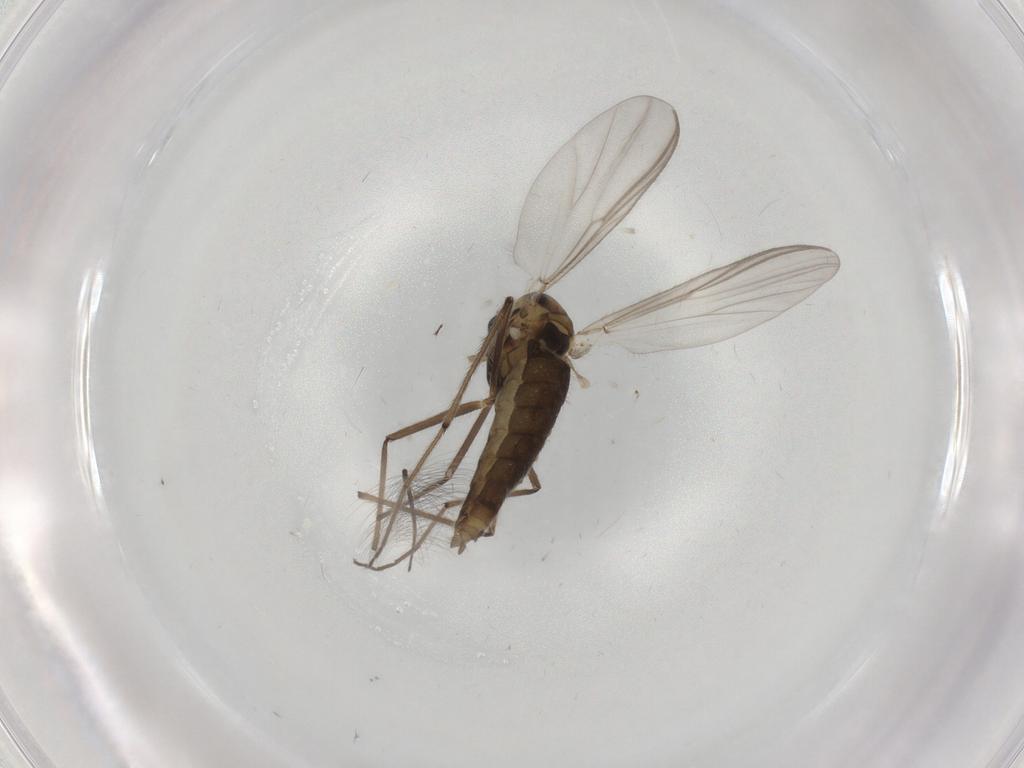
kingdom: Animalia
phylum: Arthropoda
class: Insecta
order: Diptera
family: Chironomidae
